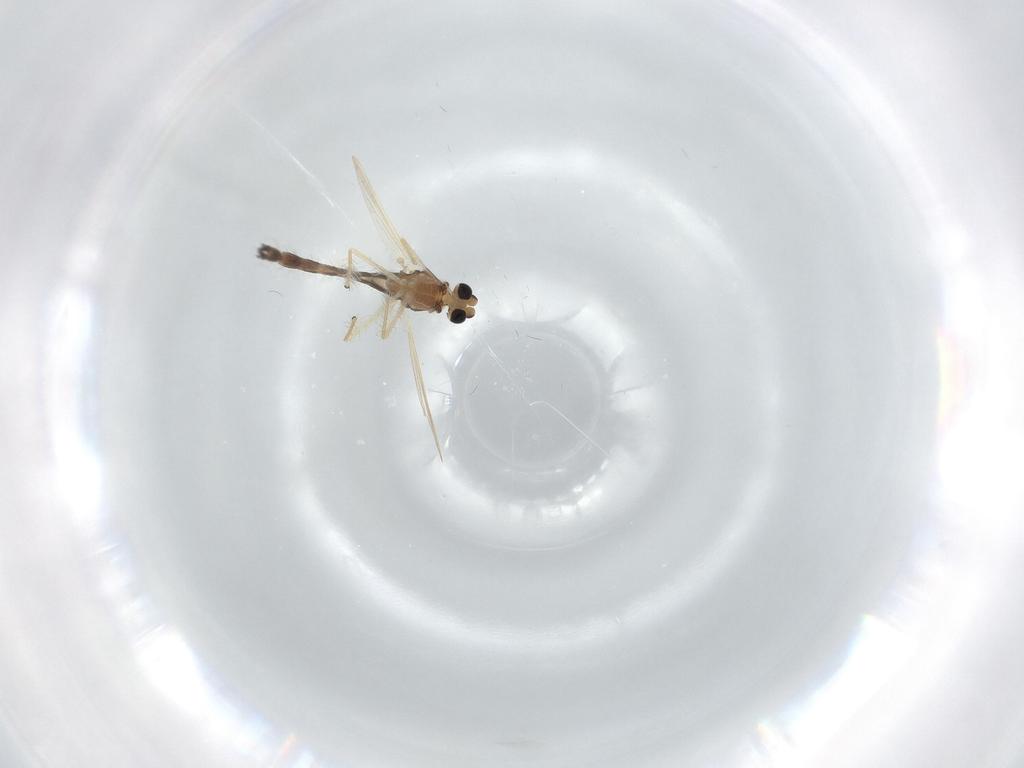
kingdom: Animalia
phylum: Arthropoda
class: Insecta
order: Diptera
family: Chironomidae
